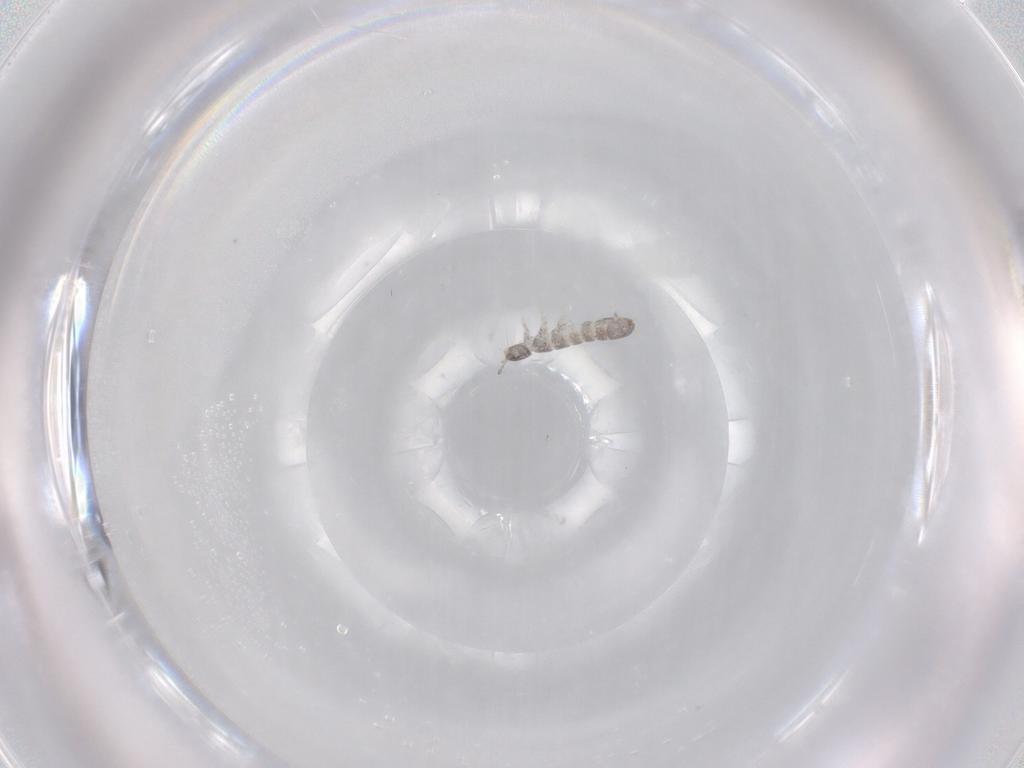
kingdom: Animalia
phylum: Arthropoda
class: Collembola
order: Entomobryomorpha
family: Isotomidae
